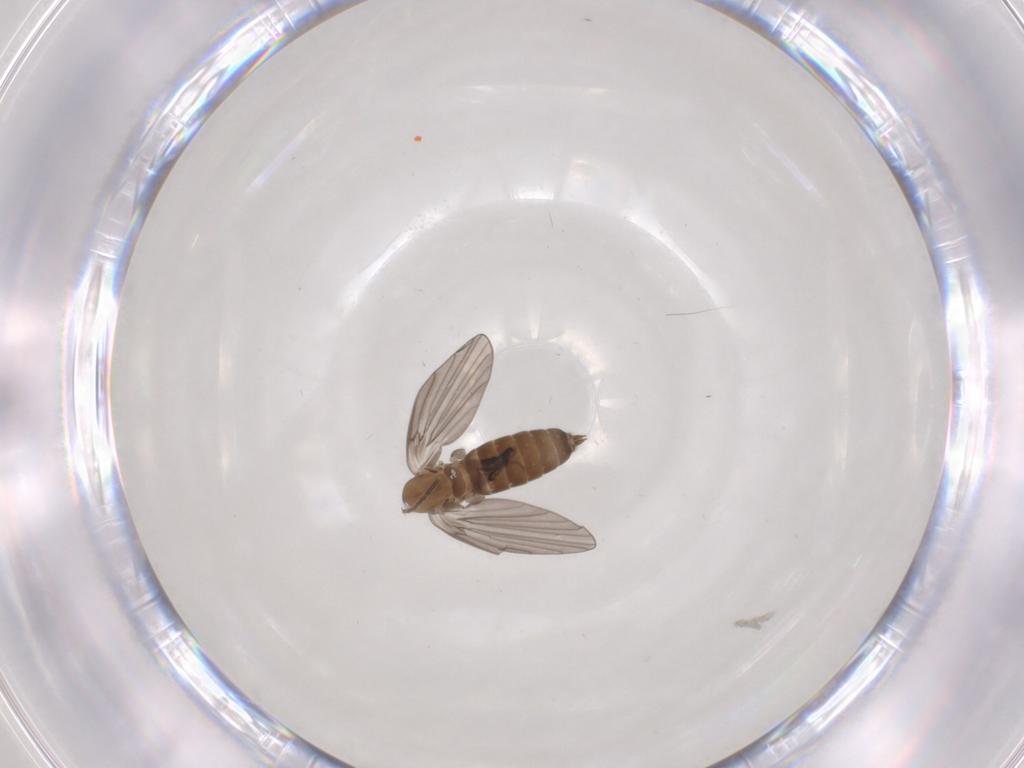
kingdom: Animalia
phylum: Arthropoda
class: Insecta
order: Diptera
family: Chironomidae
